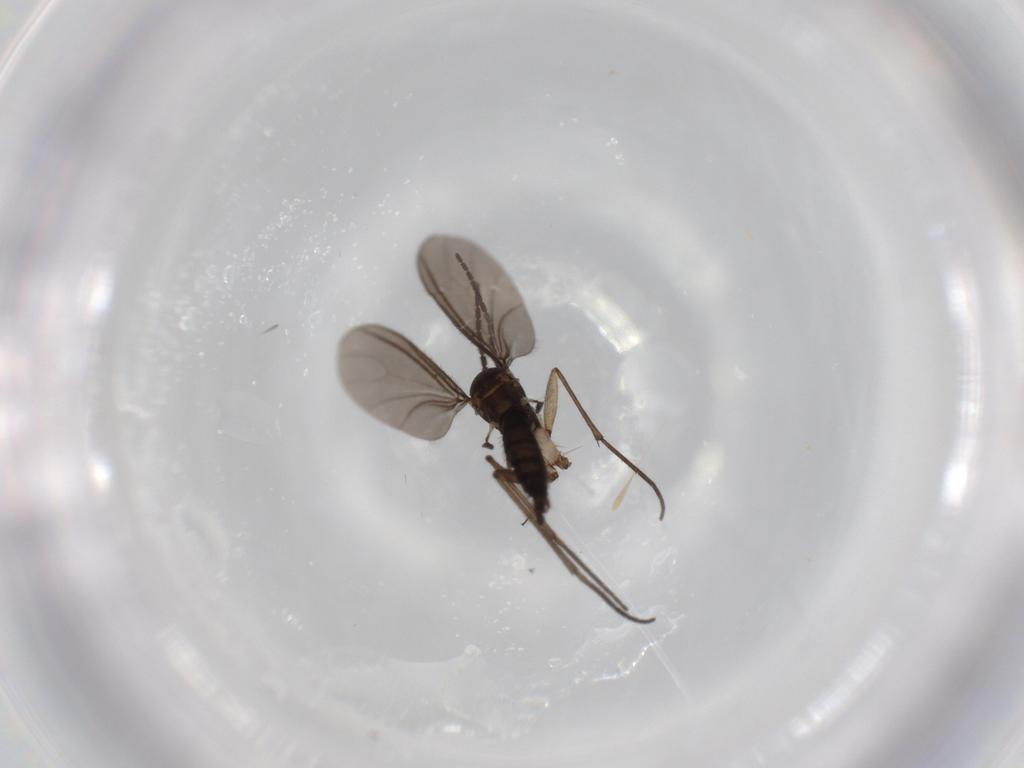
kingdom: Animalia
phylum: Arthropoda
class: Insecta
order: Diptera
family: Sciaridae
